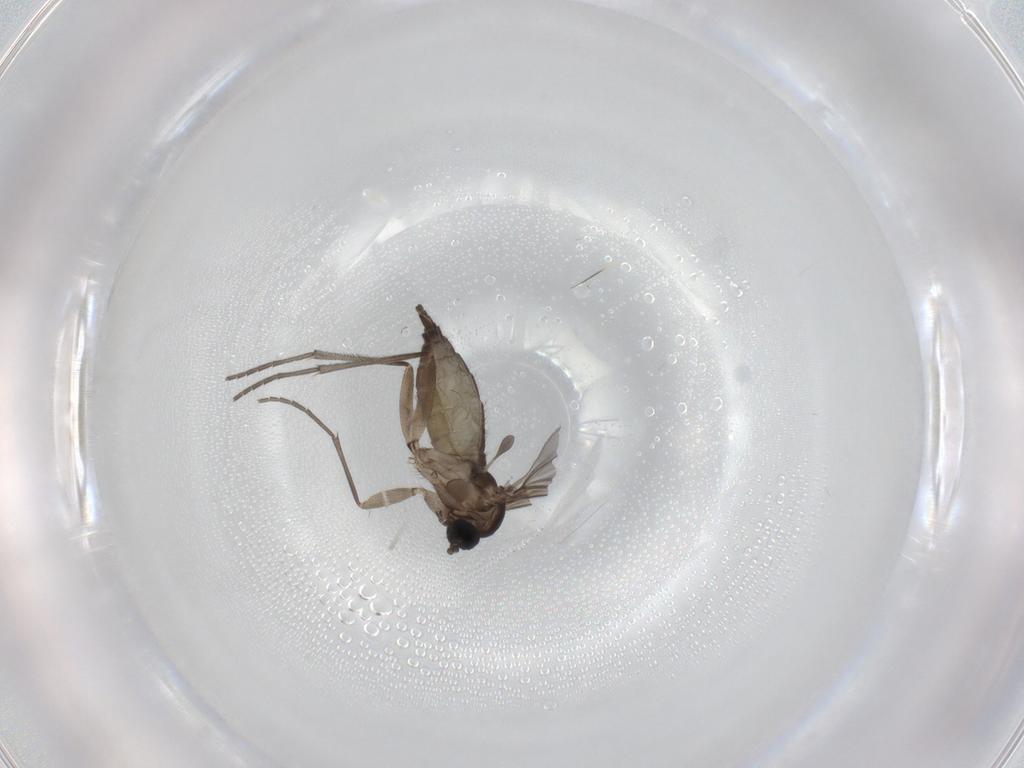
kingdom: Animalia
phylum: Arthropoda
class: Insecta
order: Diptera
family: Sciaridae
